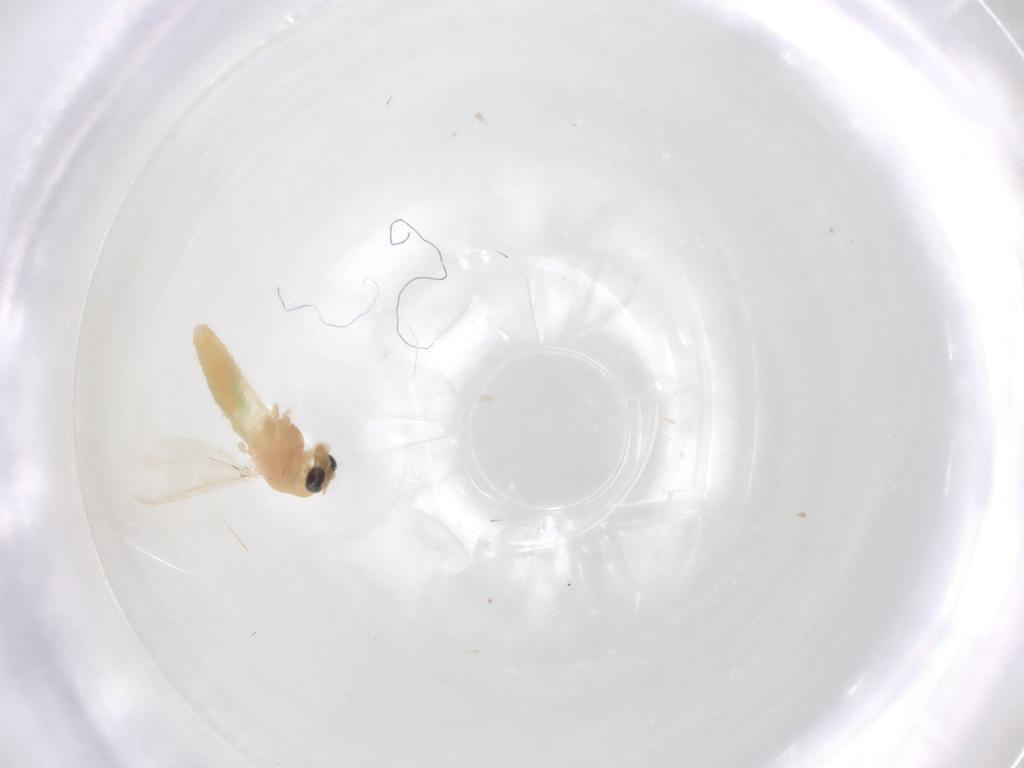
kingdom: Animalia
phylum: Arthropoda
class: Insecta
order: Diptera
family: Chironomidae
